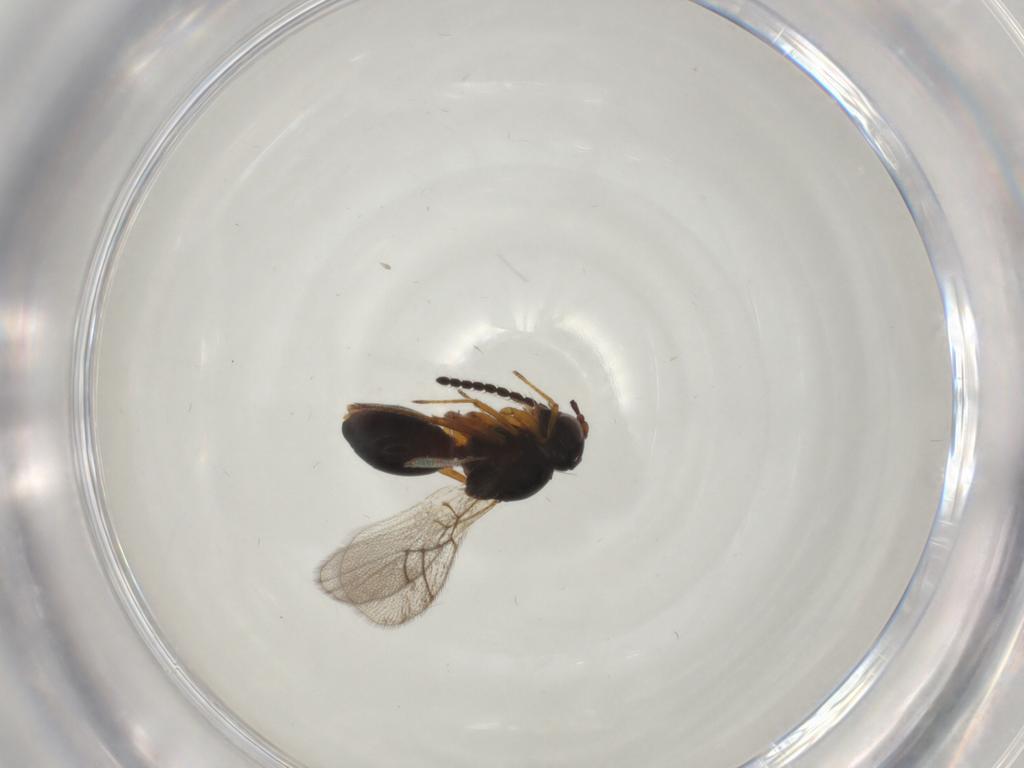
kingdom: Animalia
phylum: Arthropoda
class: Insecta
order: Hymenoptera
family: Figitidae
